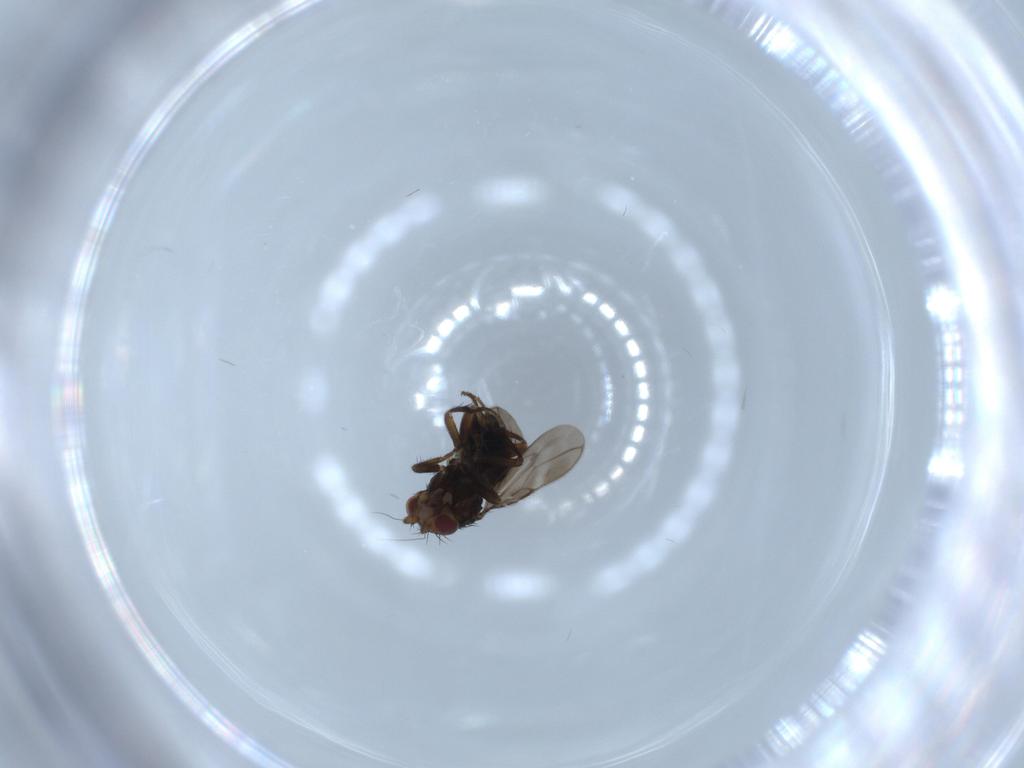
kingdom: Animalia
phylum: Arthropoda
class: Insecta
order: Diptera
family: Sphaeroceridae
